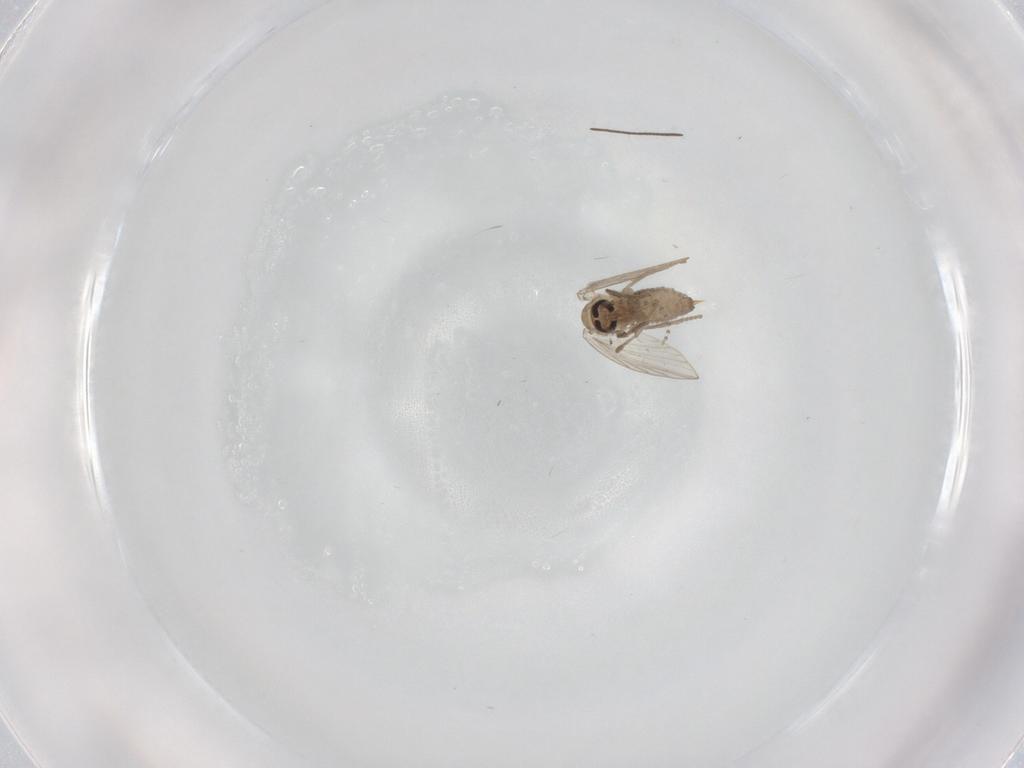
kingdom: Animalia
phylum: Arthropoda
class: Insecta
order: Diptera
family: Psychodidae
